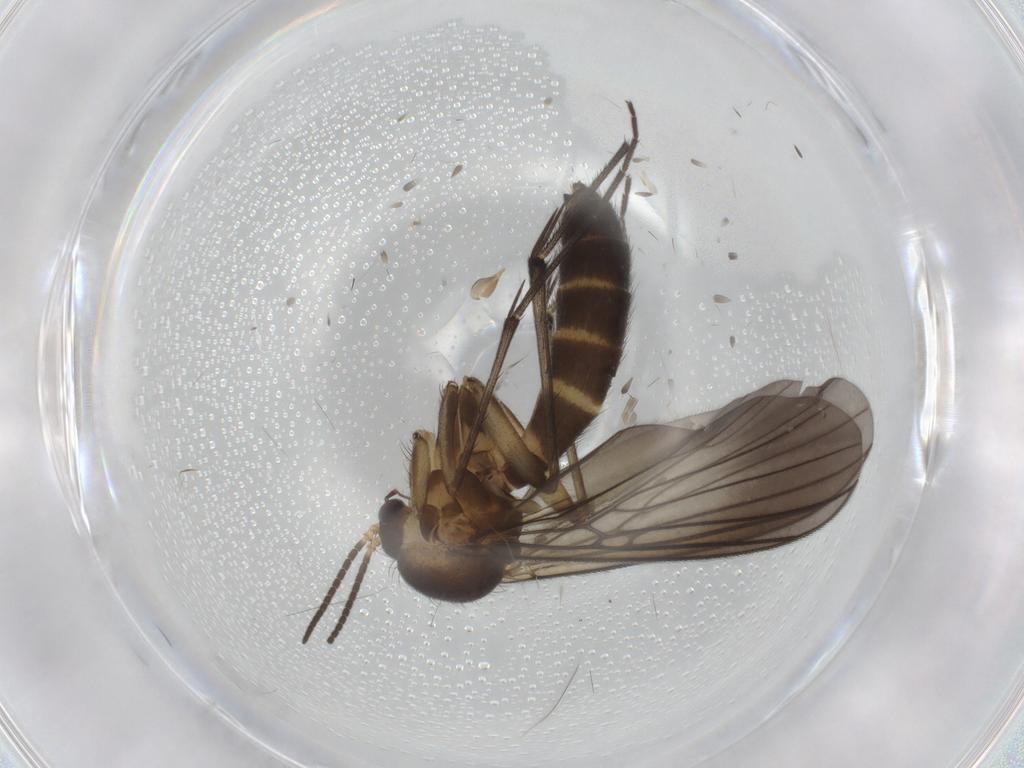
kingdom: Animalia
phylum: Arthropoda
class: Insecta
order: Diptera
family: Mycetophilidae
